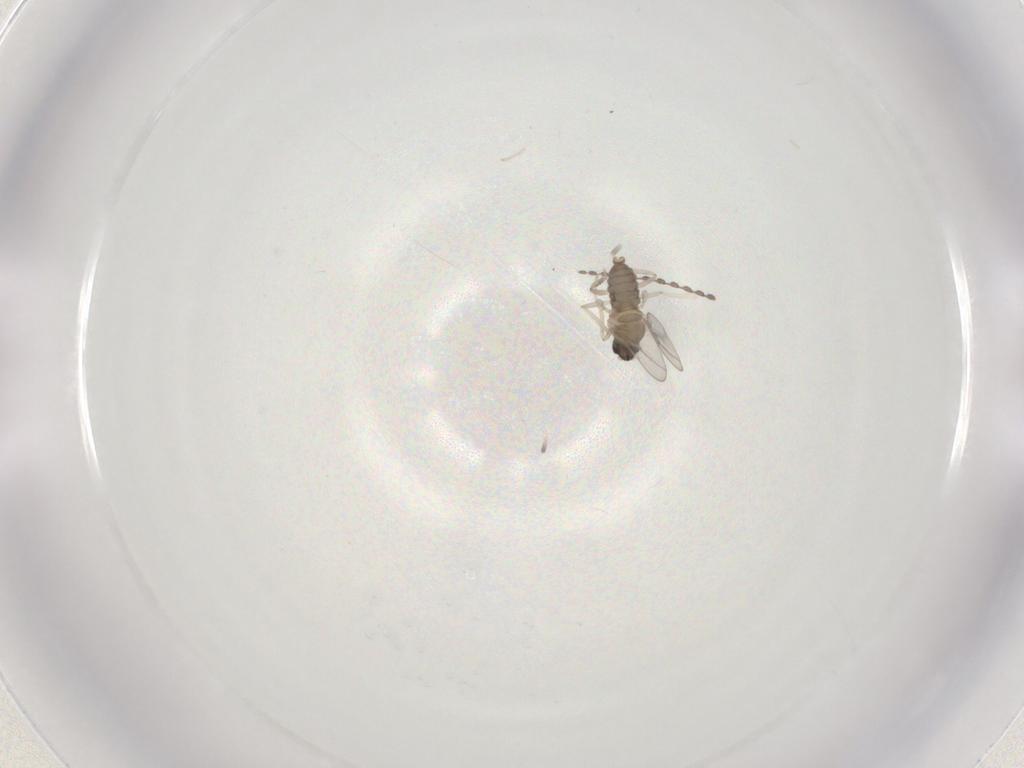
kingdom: Animalia
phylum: Arthropoda
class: Insecta
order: Diptera
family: Cecidomyiidae
